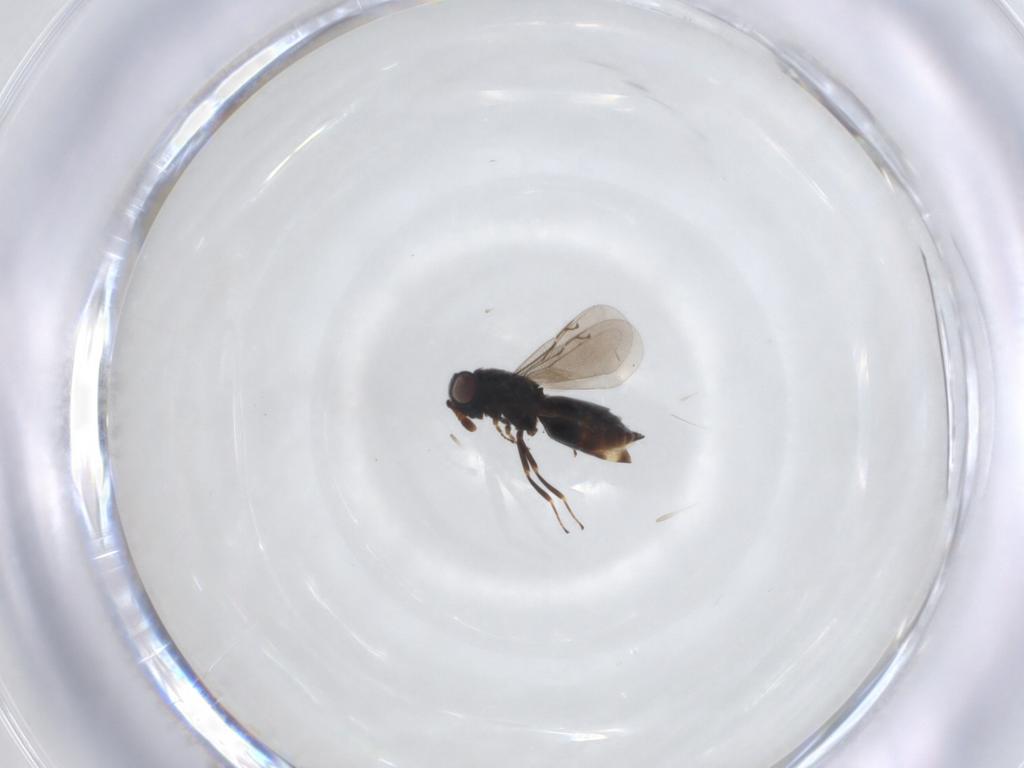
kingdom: Animalia
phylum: Arthropoda
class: Insecta
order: Hymenoptera
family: Eunotidae
